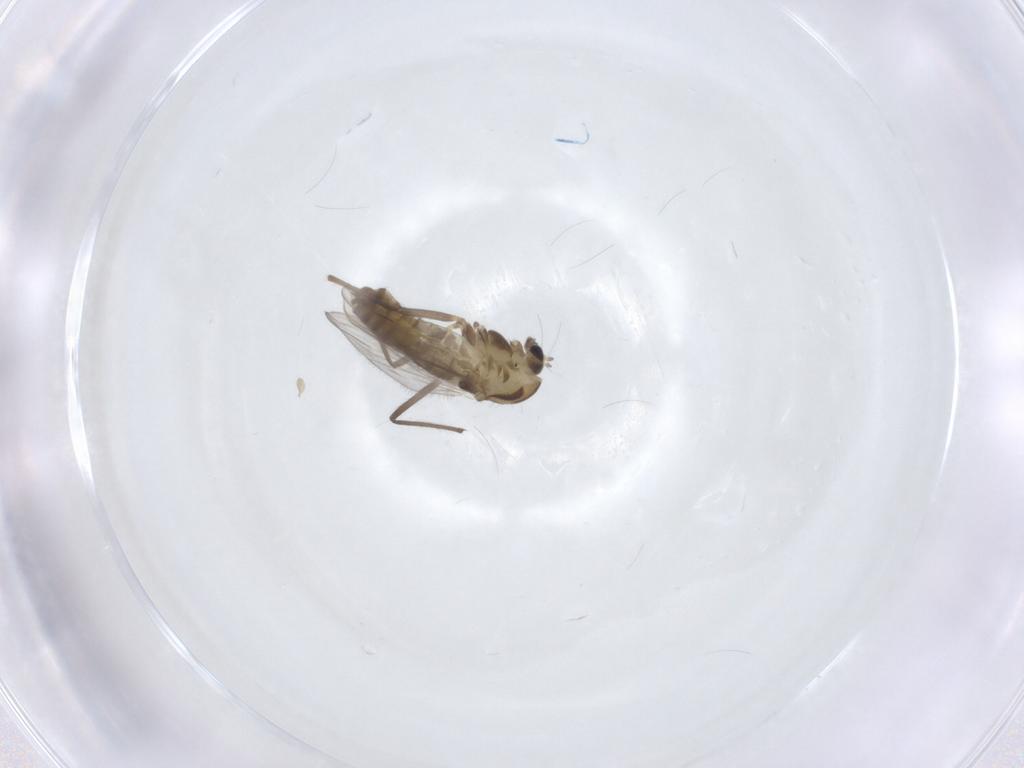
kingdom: Animalia
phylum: Arthropoda
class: Insecta
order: Diptera
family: Chironomidae
